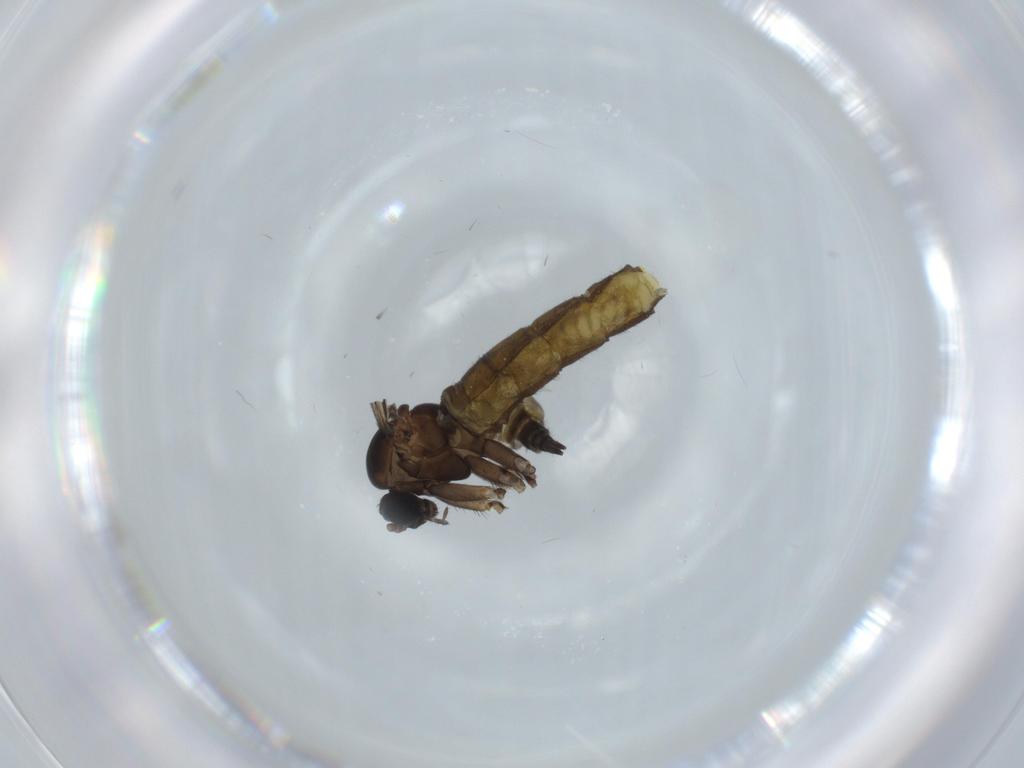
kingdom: Animalia
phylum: Arthropoda
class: Insecta
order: Diptera
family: Sciaridae
